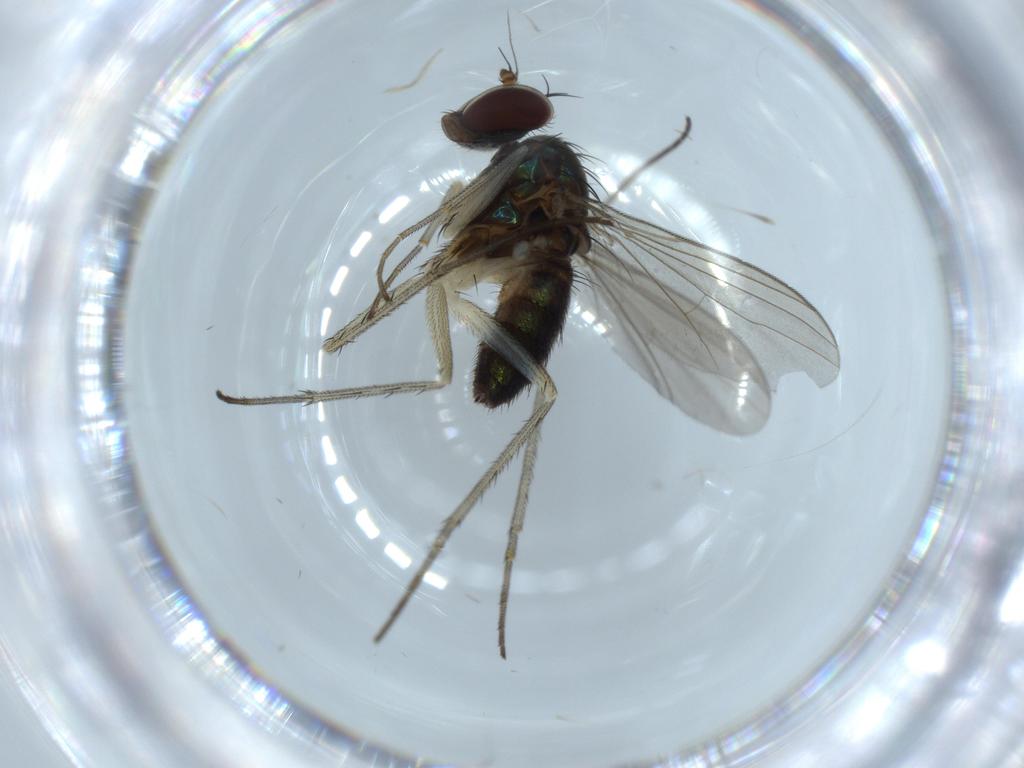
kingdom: Animalia
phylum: Arthropoda
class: Insecta
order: Diptera
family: Dolichopodidae
